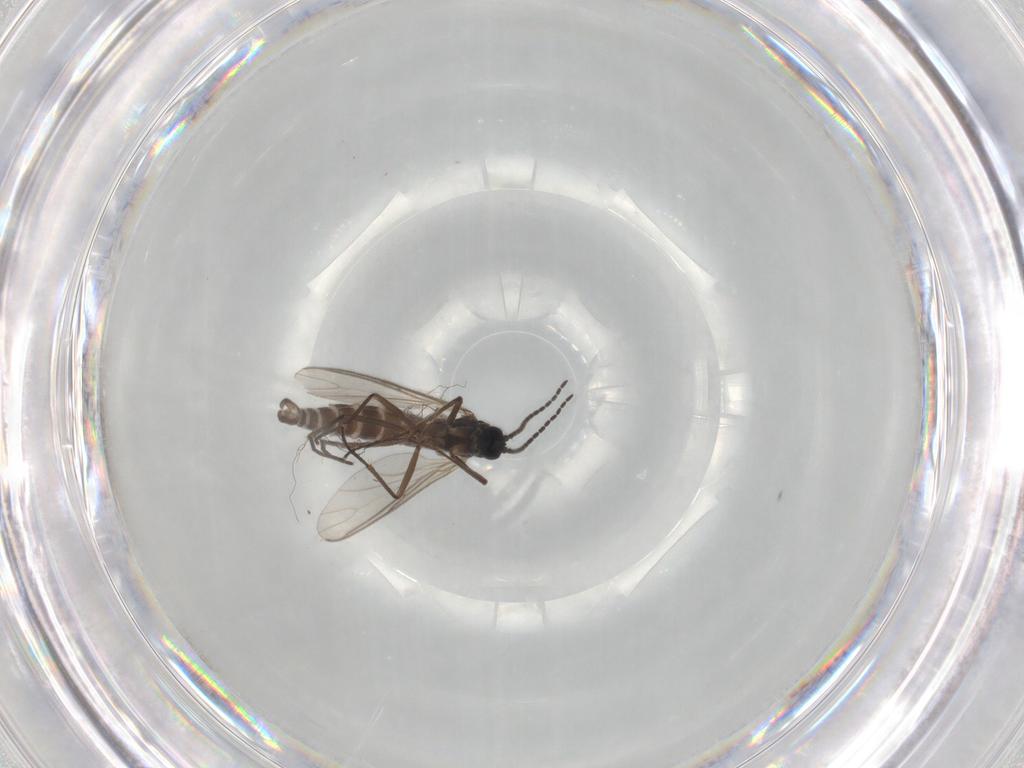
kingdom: Animalia
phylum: Arthropoda
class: Insecta
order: Diptera
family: Sciaridae
